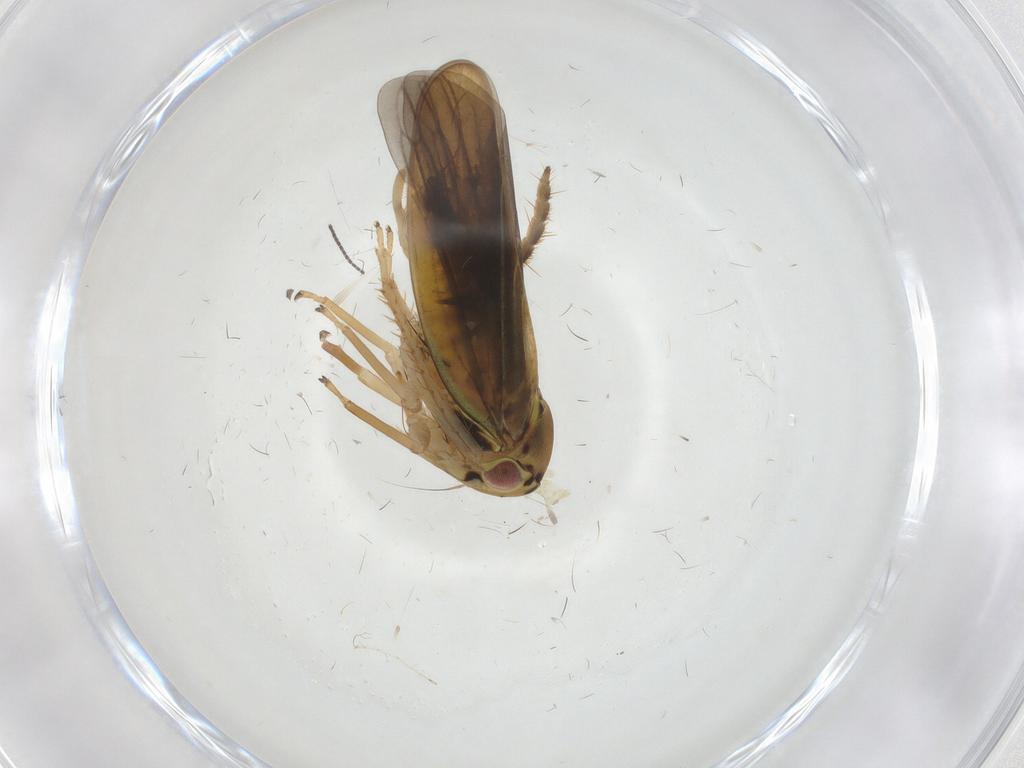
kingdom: Animalia
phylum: Arthropoda
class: Insecta
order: Hemiptera
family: Cicadellidae
